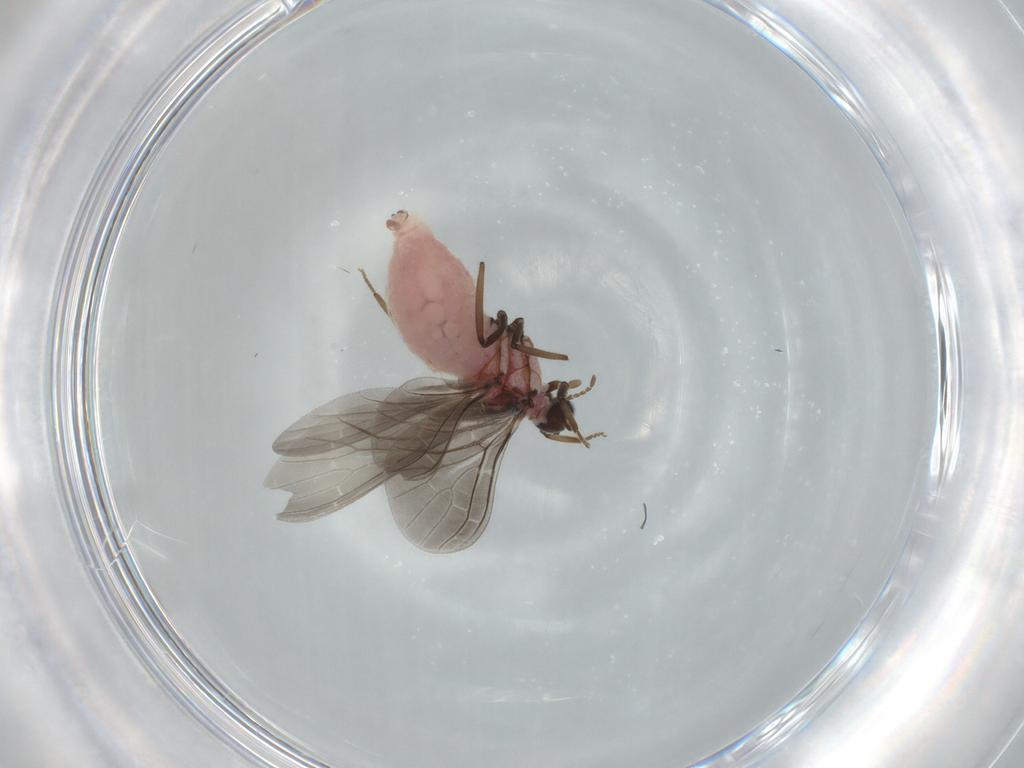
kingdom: Animalia
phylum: Arthropoda
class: Insecta
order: Neuroptera
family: Coniopterygidae
